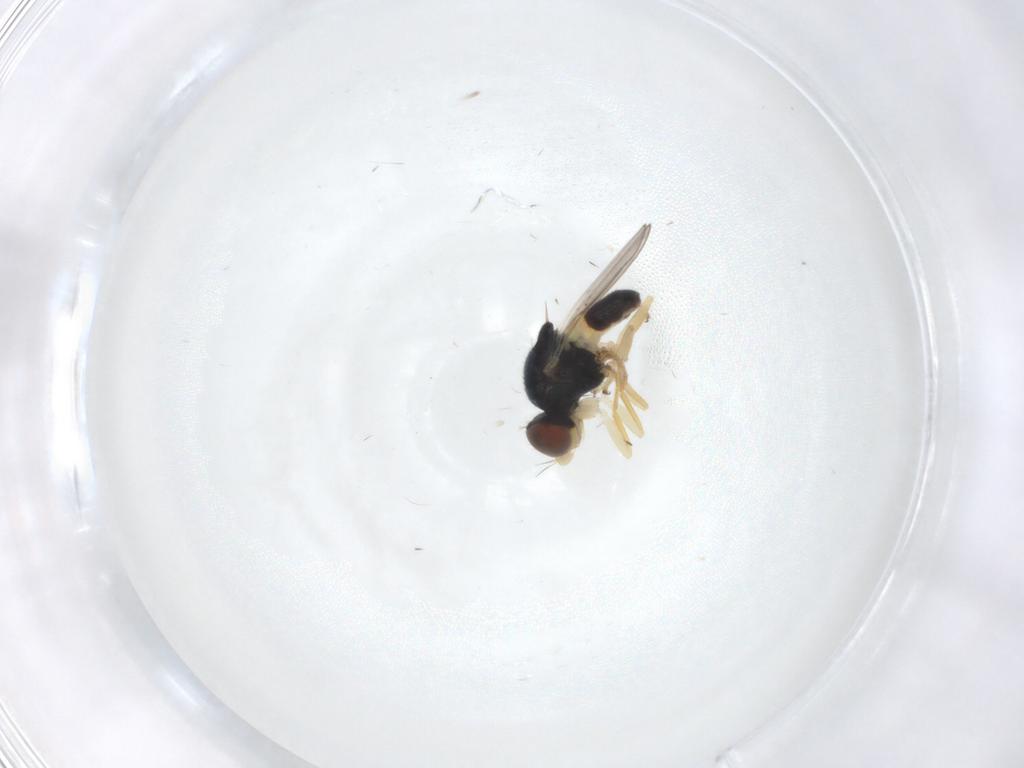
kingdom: Animalia
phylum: Arthropoda
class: Insecta
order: Diptera
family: Chloropidae
